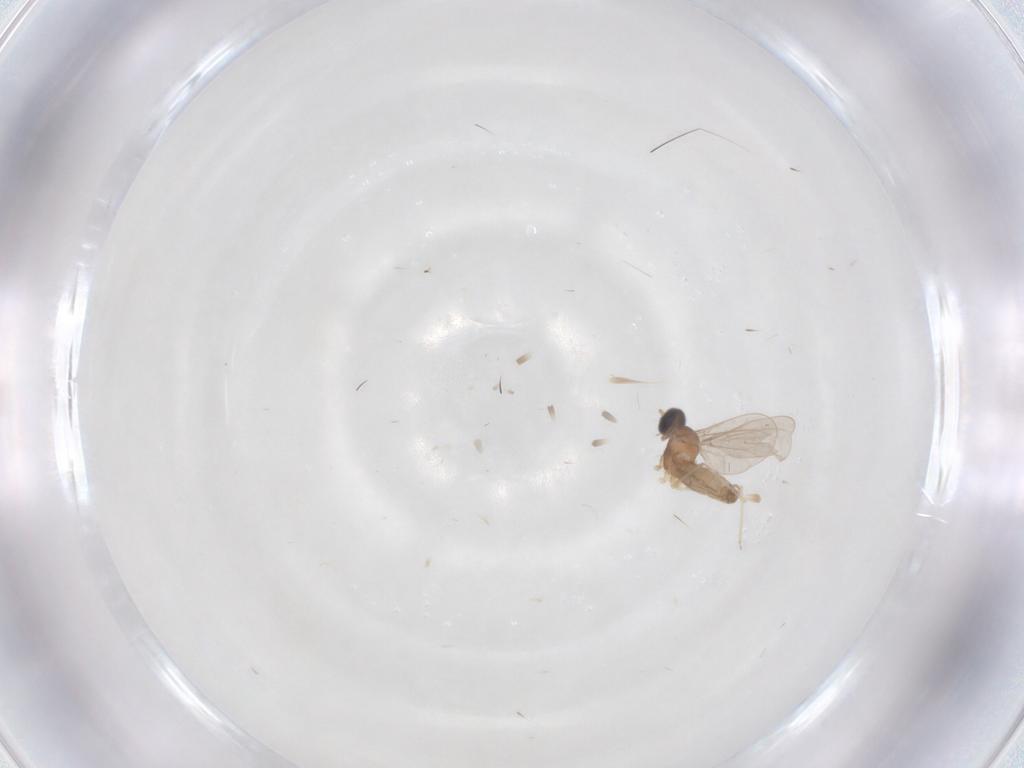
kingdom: Animalia
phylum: Arthropoda
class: Insecta
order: Diptera
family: Cecidomyiidae
